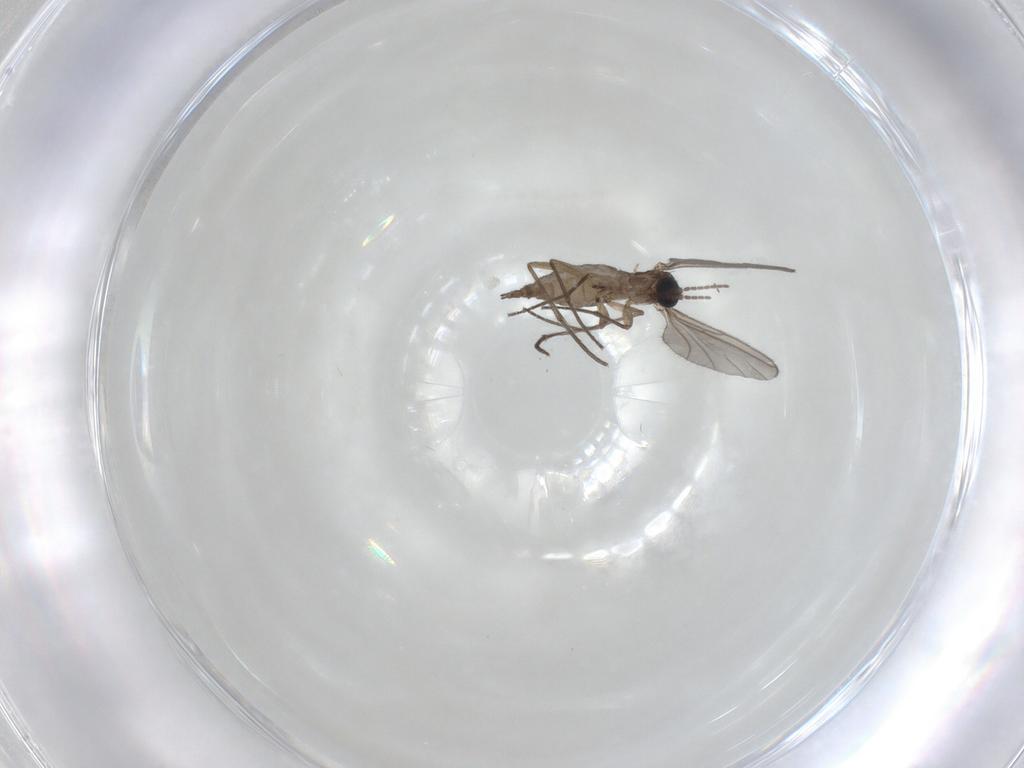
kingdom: Animalia
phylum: Arthropoda
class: Insecta
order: Diptera
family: Sciaridae
